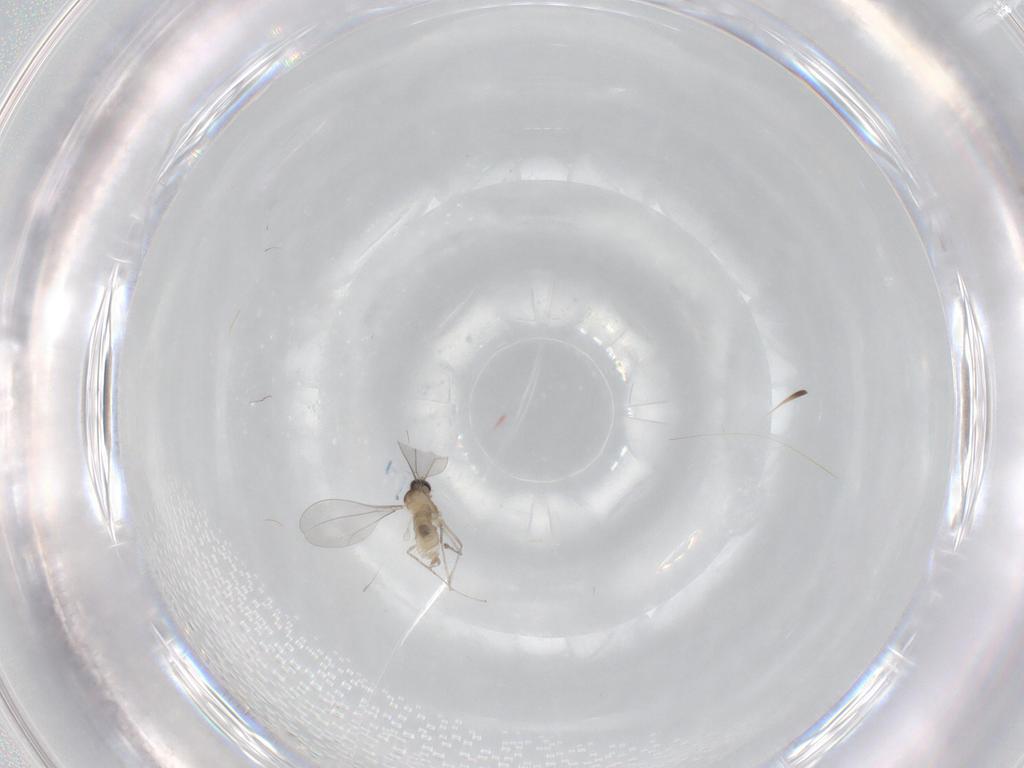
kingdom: Animalia
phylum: Arthropoda
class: Insecta
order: Diptera
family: Cecidomyiidae
